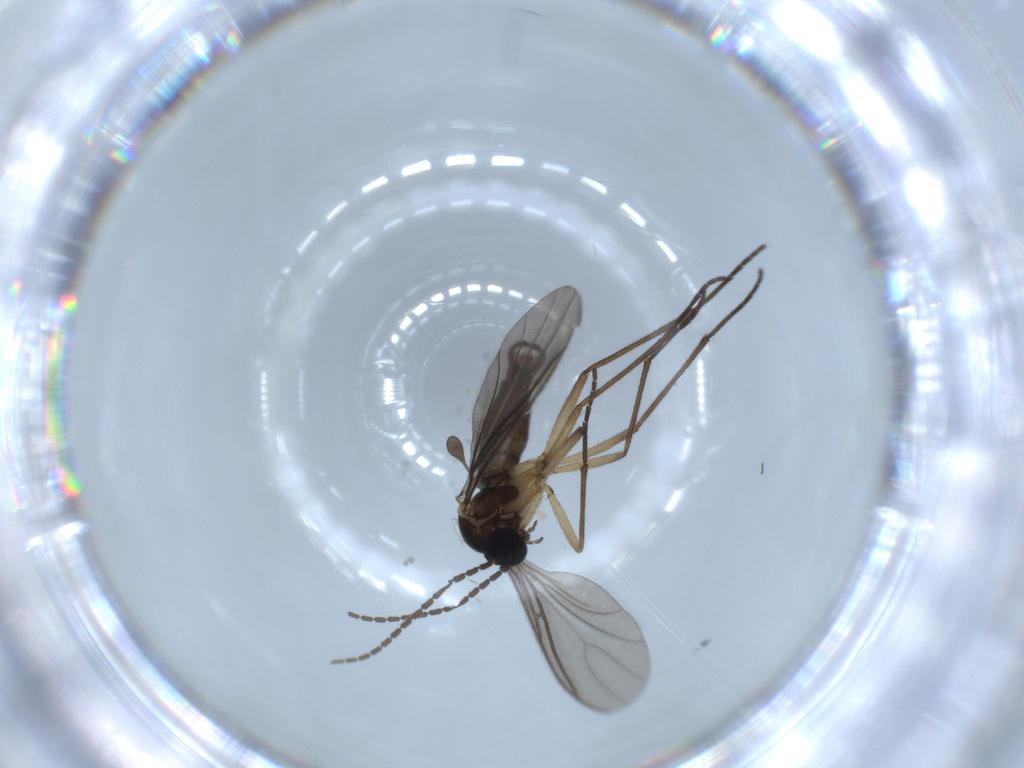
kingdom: Animalia
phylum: Arthropoda
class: Insecta
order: Diptera
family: Sciaridae
